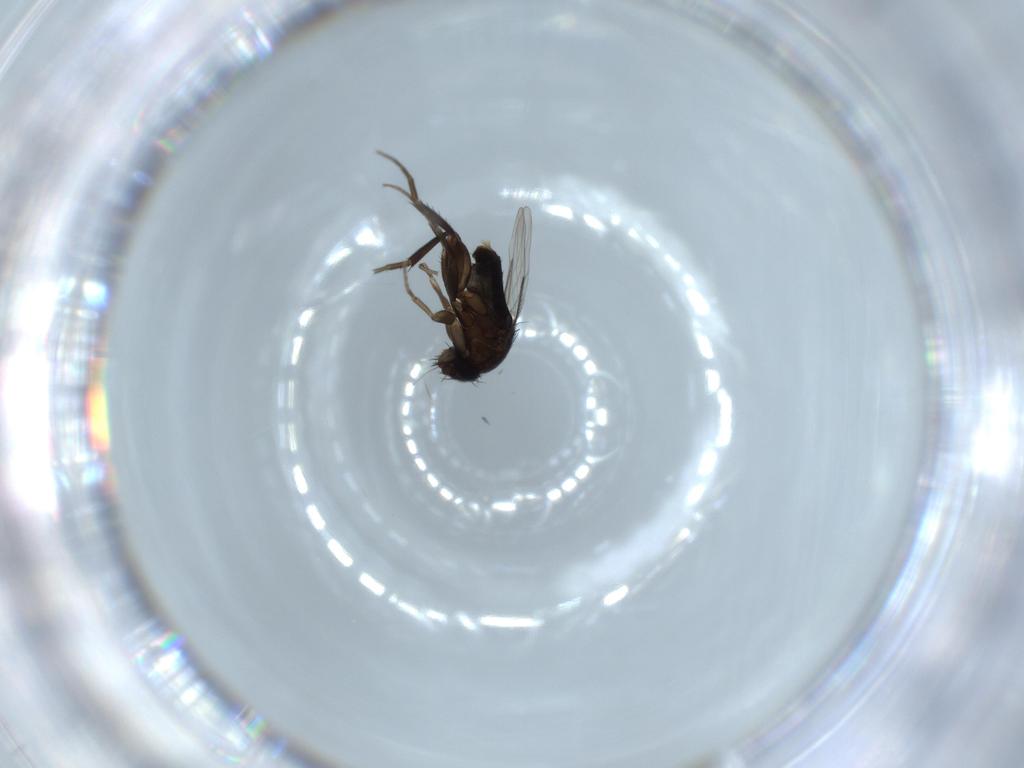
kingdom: Animalia
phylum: Arthropoda
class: Insecta
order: Diptera
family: Phoridae
